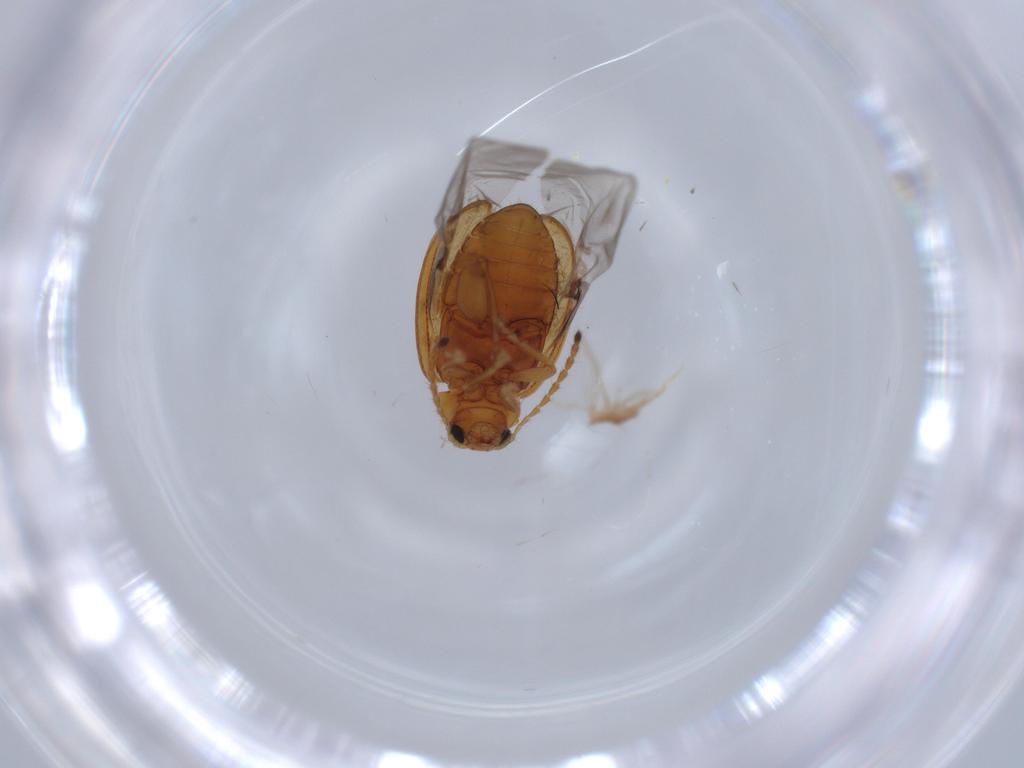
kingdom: Animalia
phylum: Arthropoda
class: Insecta
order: Coleoptera
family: Chrysomelidae
